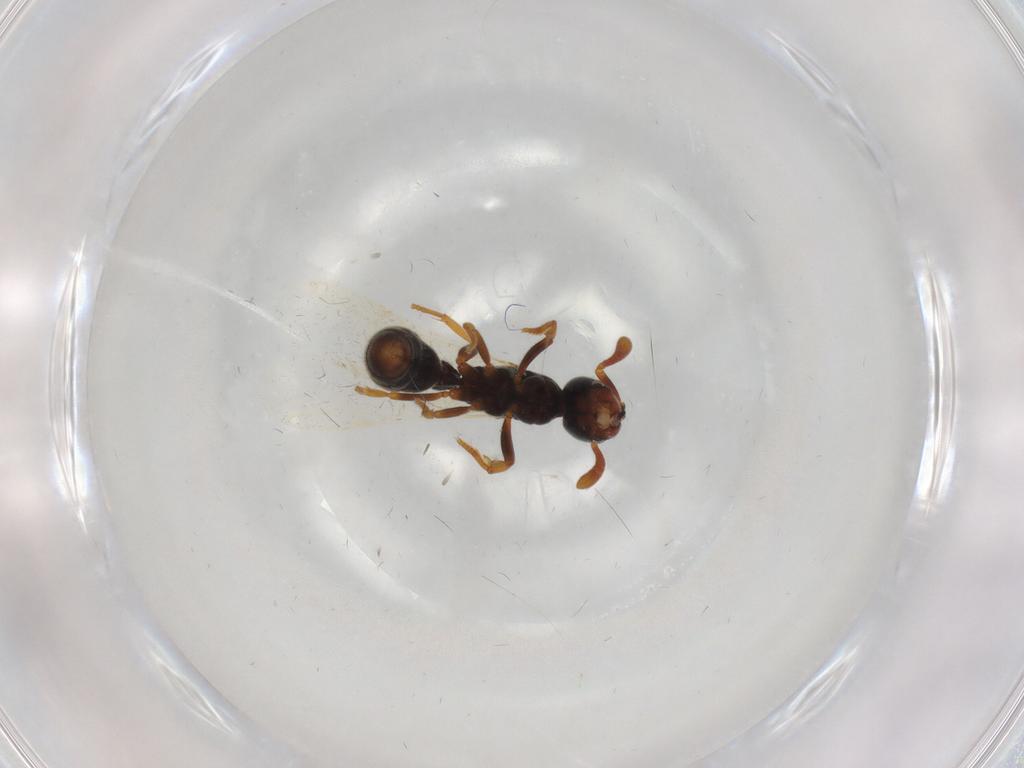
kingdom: Animalia
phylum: Arthropoda
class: Insecta
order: Hymenoptera
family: Formicidae
